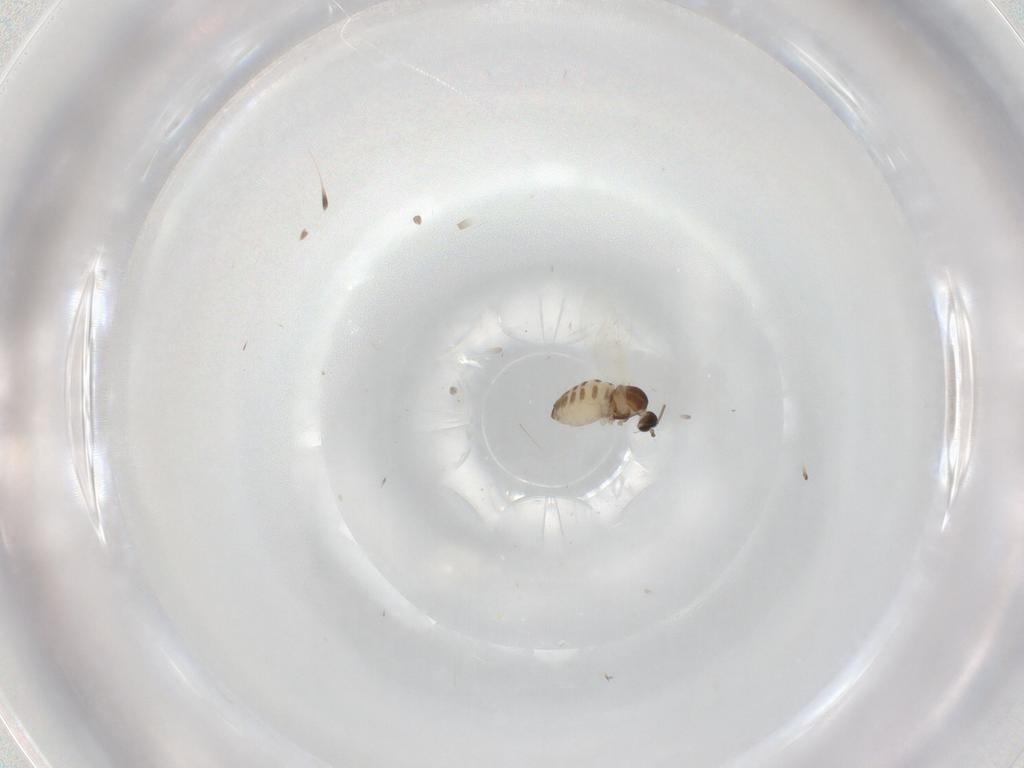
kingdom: Animalia
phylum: Arthropoda
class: Insecta
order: Diptera
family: Cecidomyiidae
